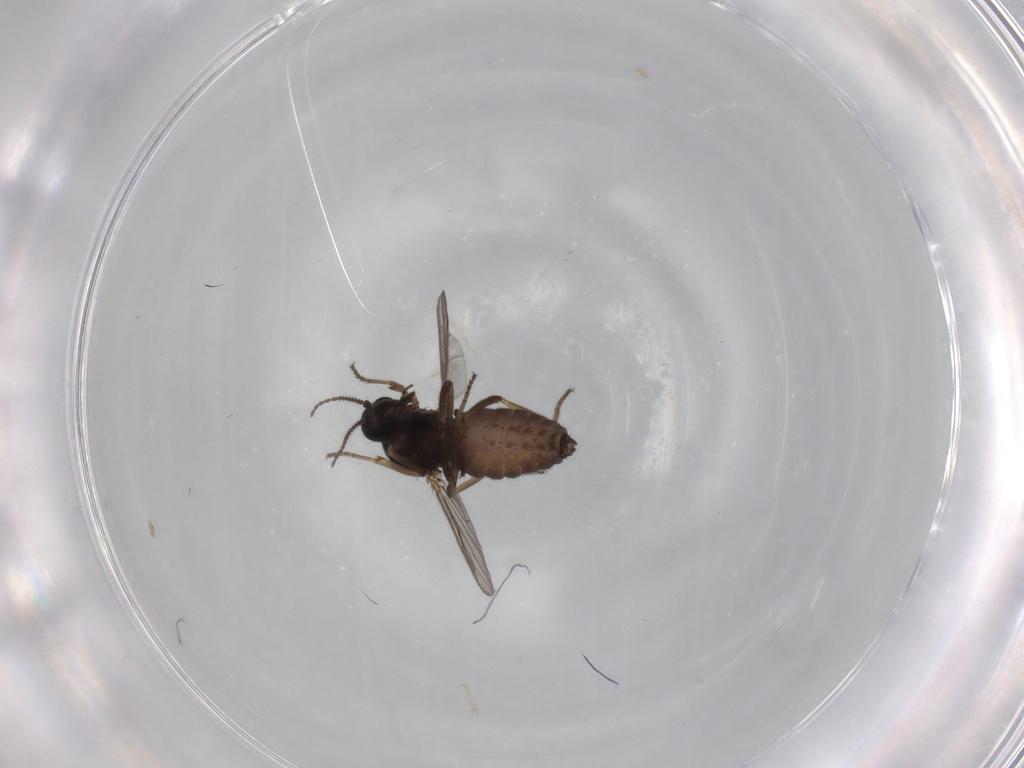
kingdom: Animalia
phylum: Arthropoda
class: Insecta
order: Diptera
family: Ceratopogonidae
